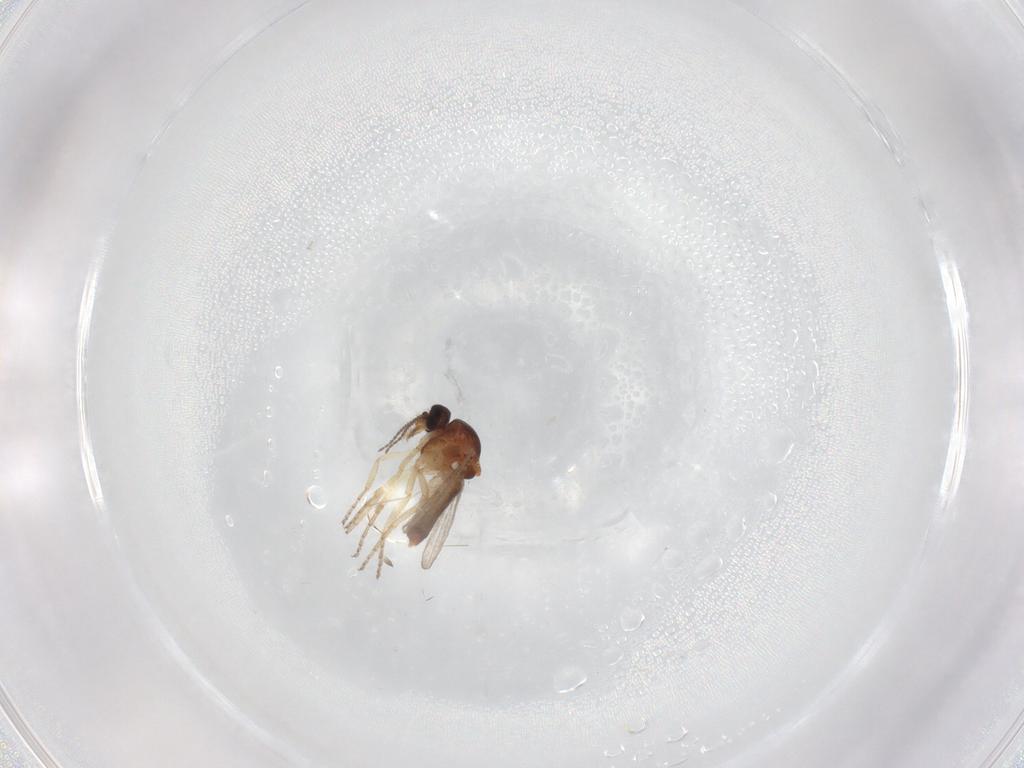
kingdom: Animalia
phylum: Arthropoda
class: Insecta
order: Diptera
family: Ceratopogonidae
